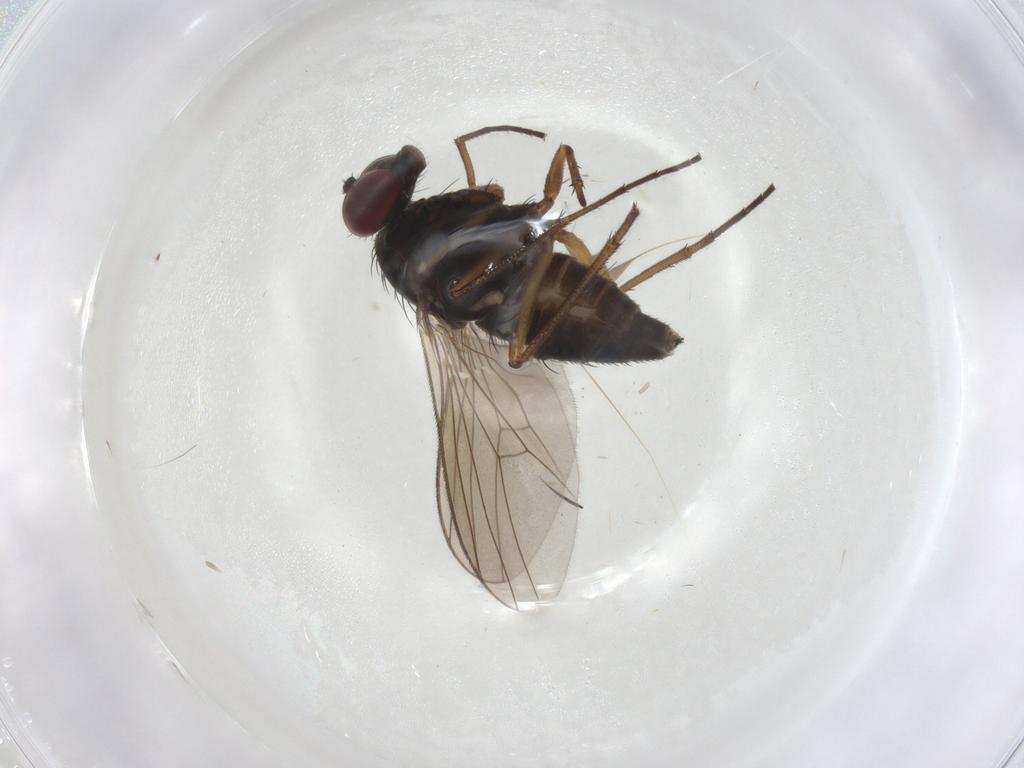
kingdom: Animalia
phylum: Arthropoda
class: Insecta
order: Diptera
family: Dolichopodidae
